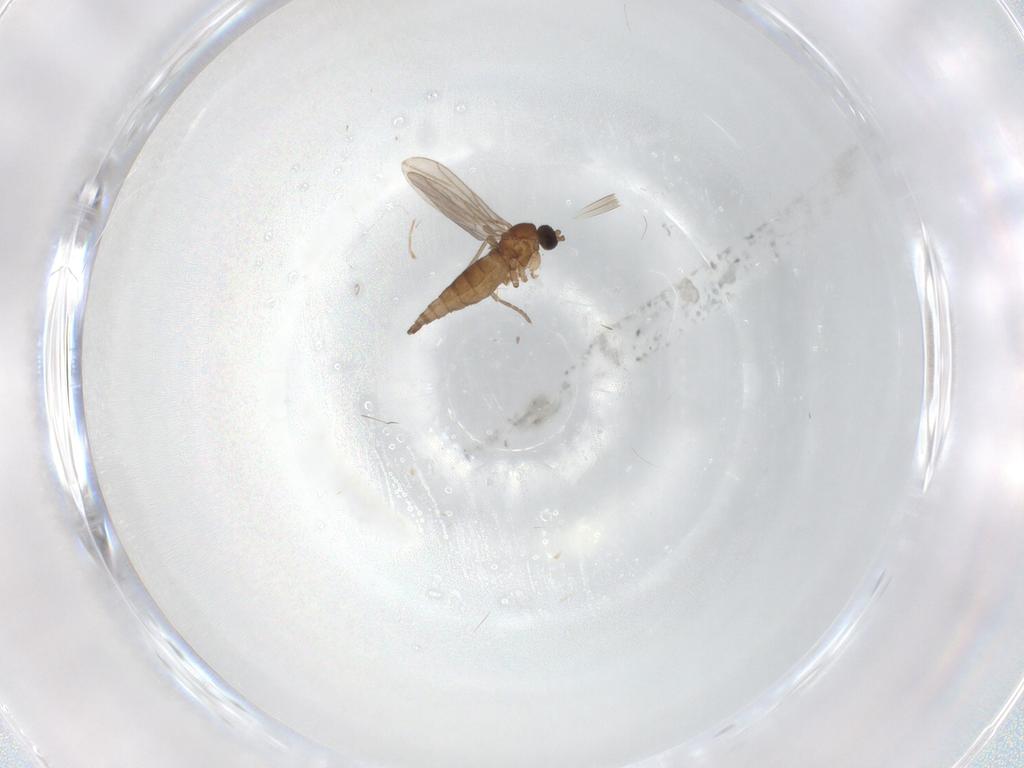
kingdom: Animalia
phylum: Arthropoda
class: Insecta
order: Diptera
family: Cecidomyiidae
